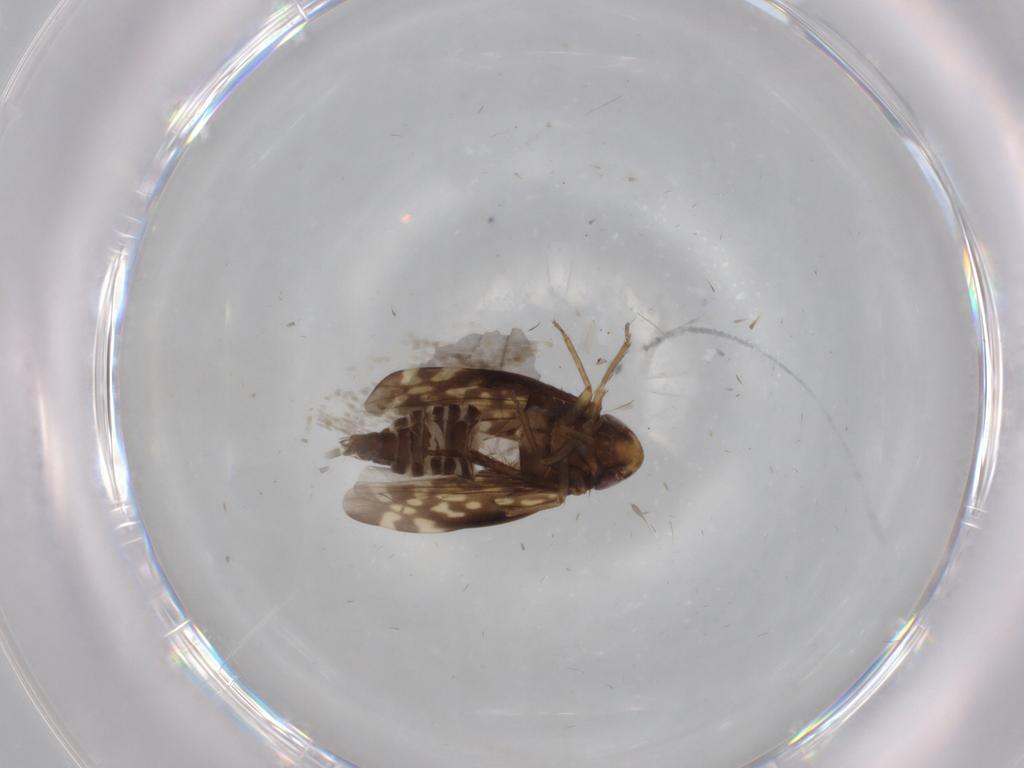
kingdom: Animalia
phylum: Arthropoda
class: Insecta
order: Hemiptera
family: Cicadellidae
